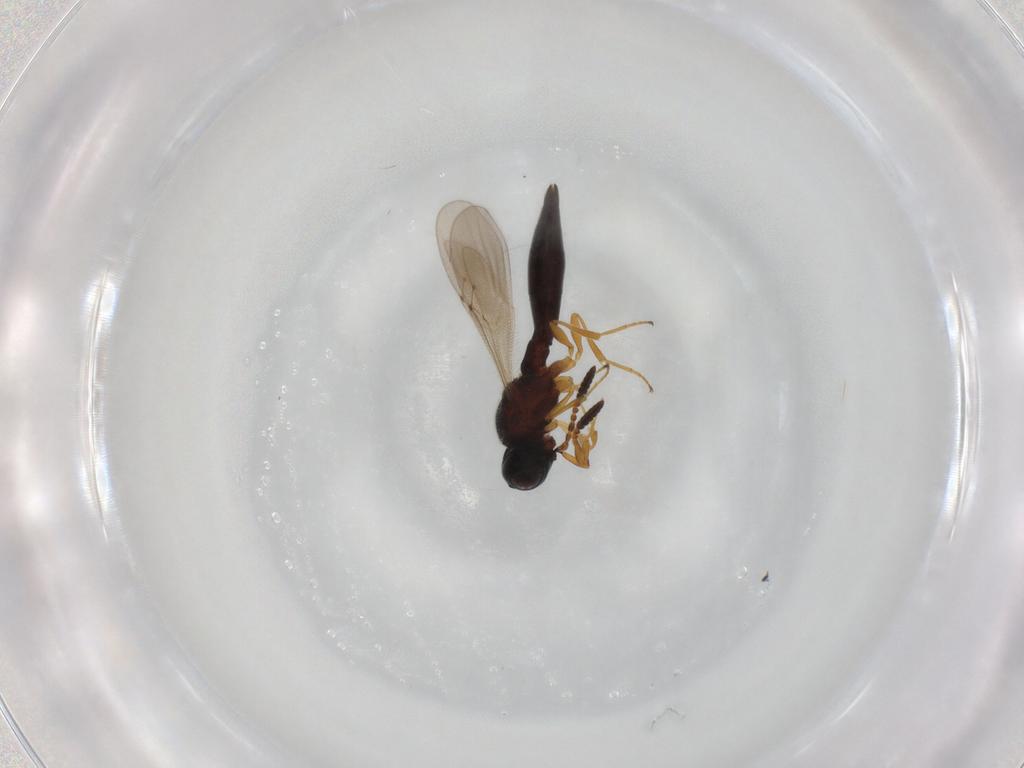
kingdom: Animalia
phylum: Arthropoda
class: Insecta
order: Hymenoptera
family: Scelionidae
